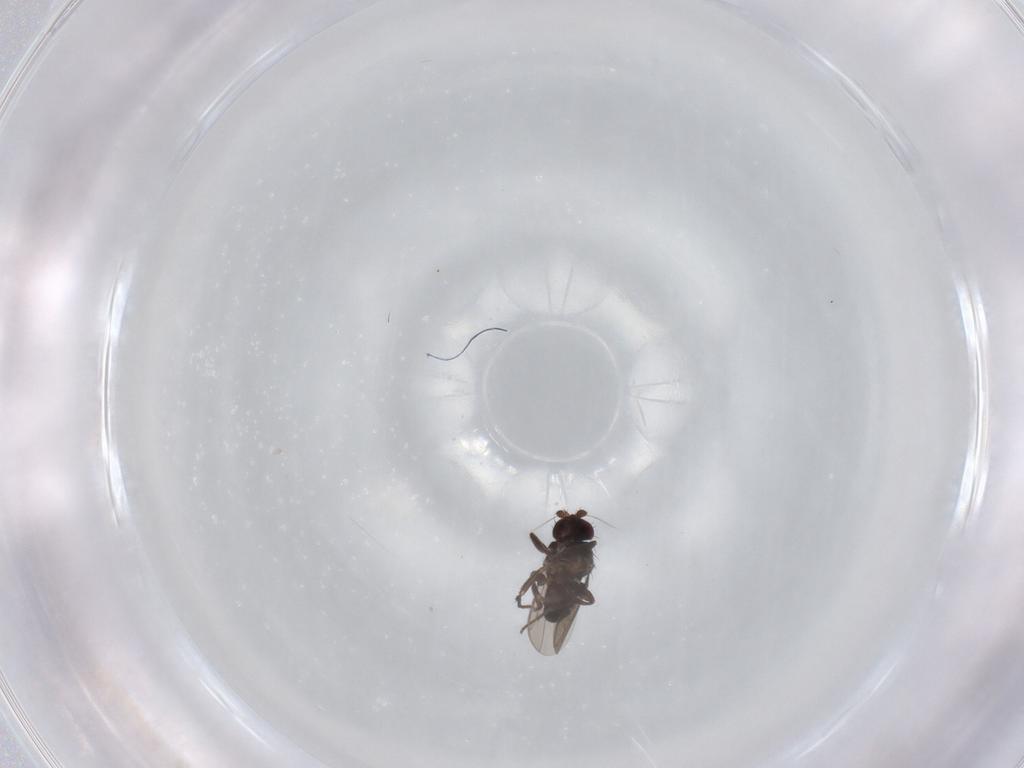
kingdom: Animalia
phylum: Arthropoda
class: Insecta
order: Diptera
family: Sphaeroceridae
